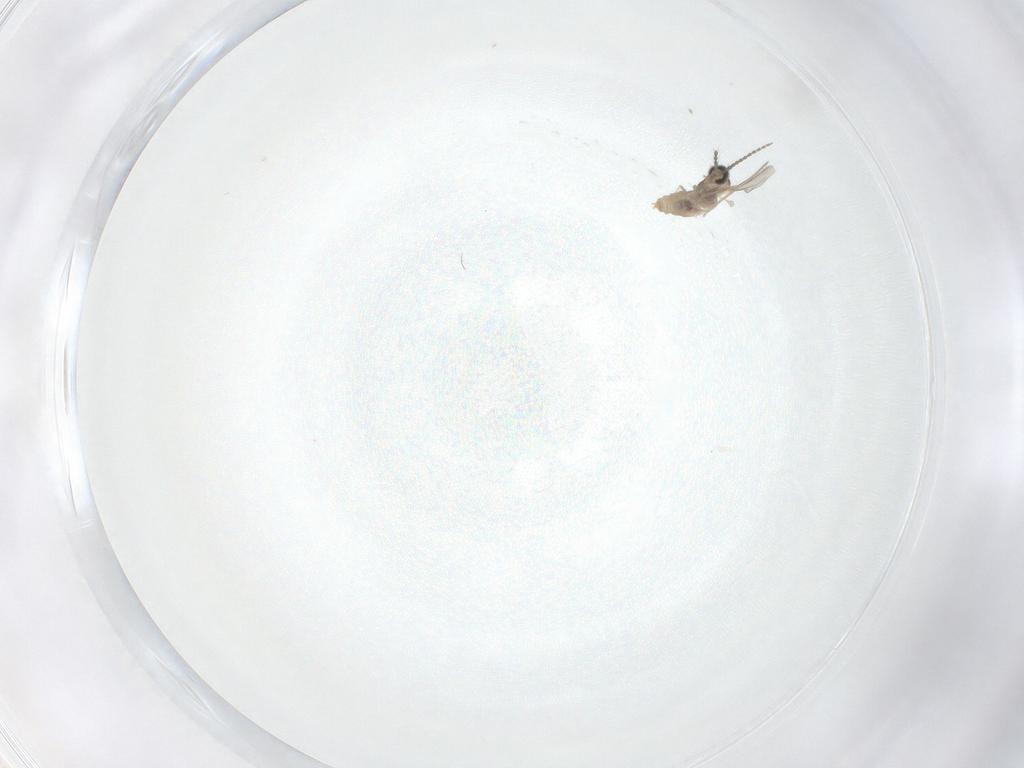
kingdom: Animalia
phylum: Arthropoda
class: Insecta
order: Diptera
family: Cecidomyiidae
